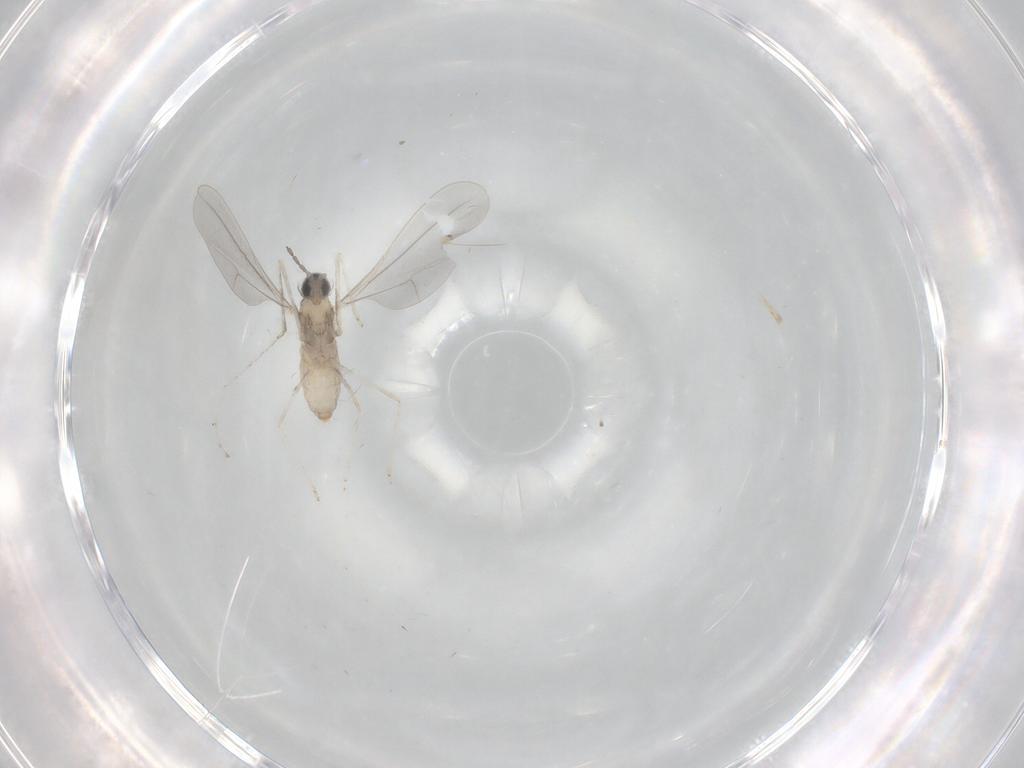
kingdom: Animalia
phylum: Arthropoda
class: Insecta
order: Diptera
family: Cecidomyiidae
